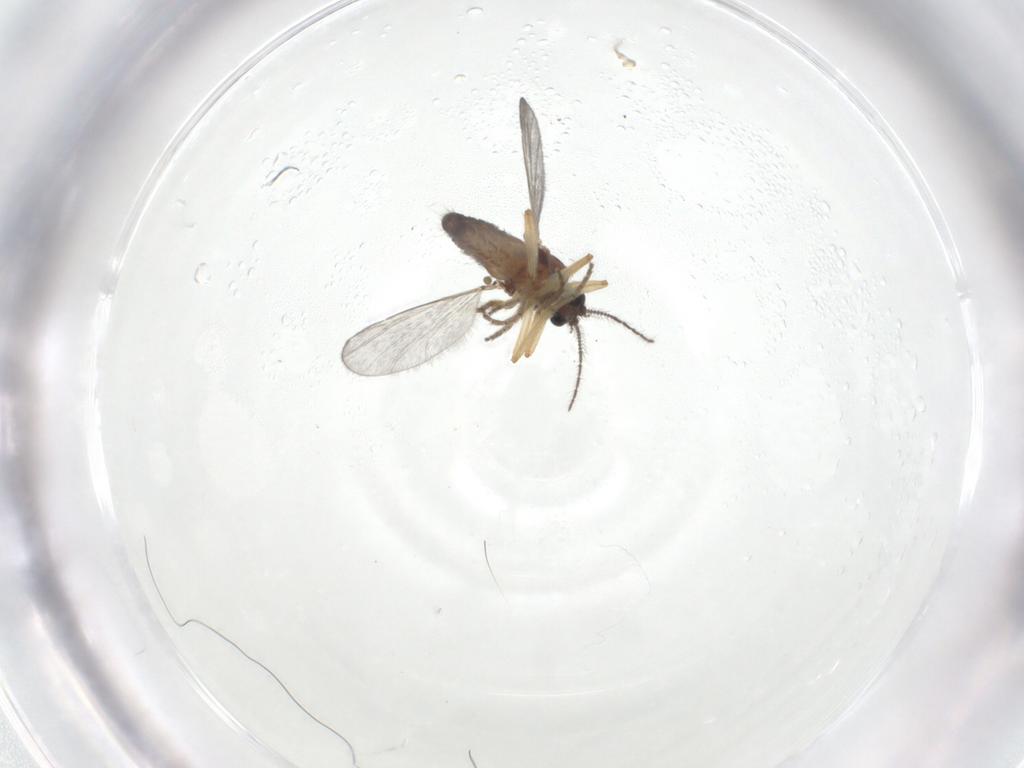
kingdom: Animalia
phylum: Arthropoda
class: Insecta
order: Diptera
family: Ceratopogonidae
